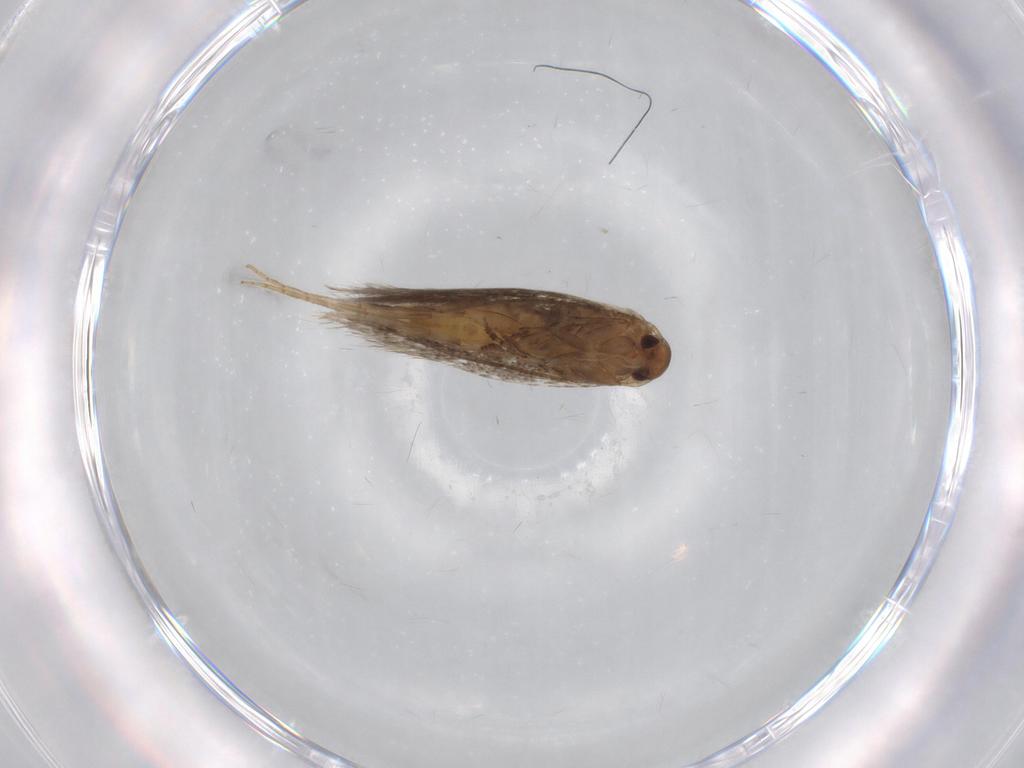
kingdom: Animalia
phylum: Arthropoda
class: Insecta
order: Lepidoptera
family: Elachistidae
